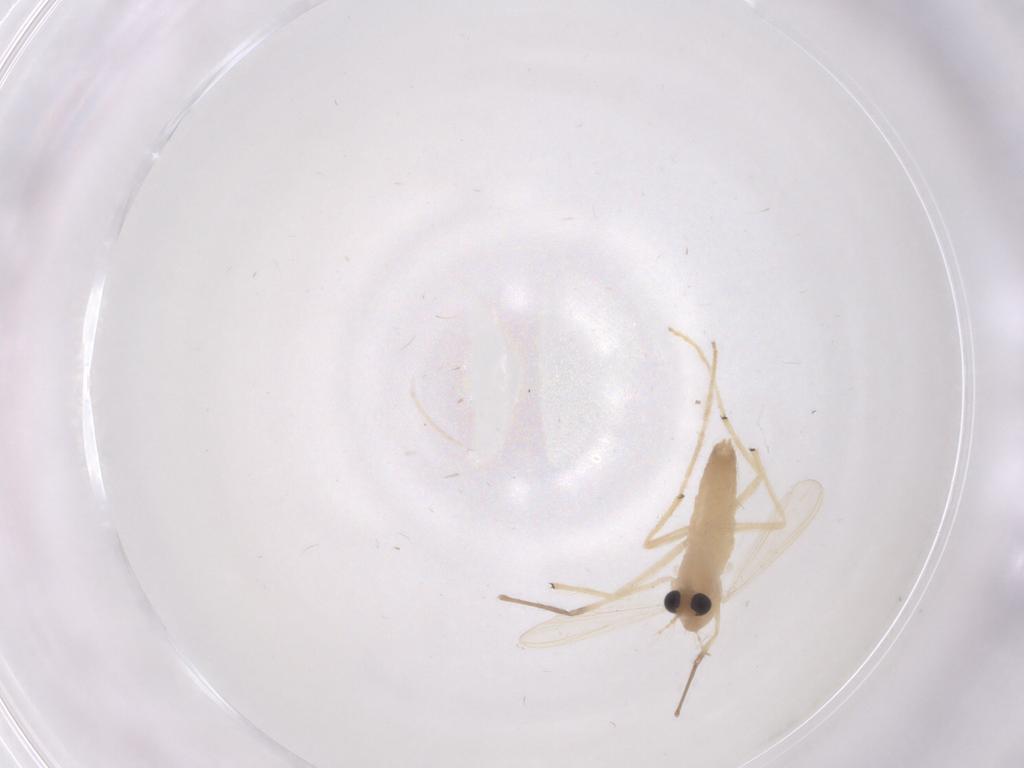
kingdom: Animalia
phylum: Arthropoda
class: Insecta
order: Diptera
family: Chironomidae
